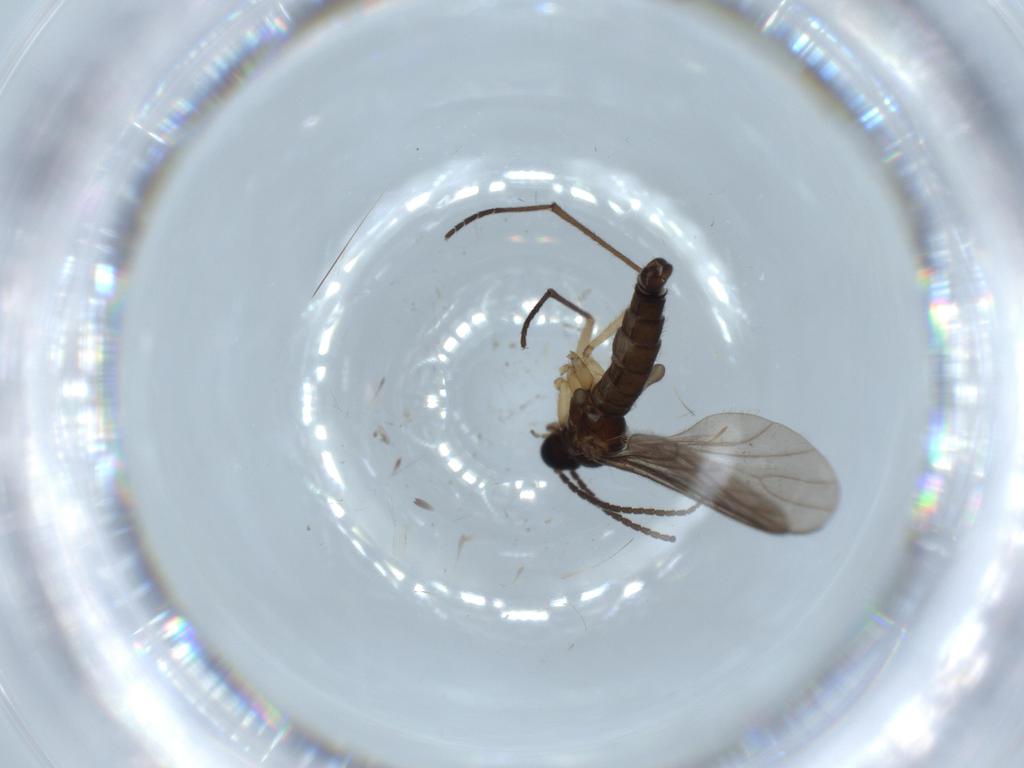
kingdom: Animalia
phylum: Arthropoda
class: Insecta
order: Diptera
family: Sciaridae
